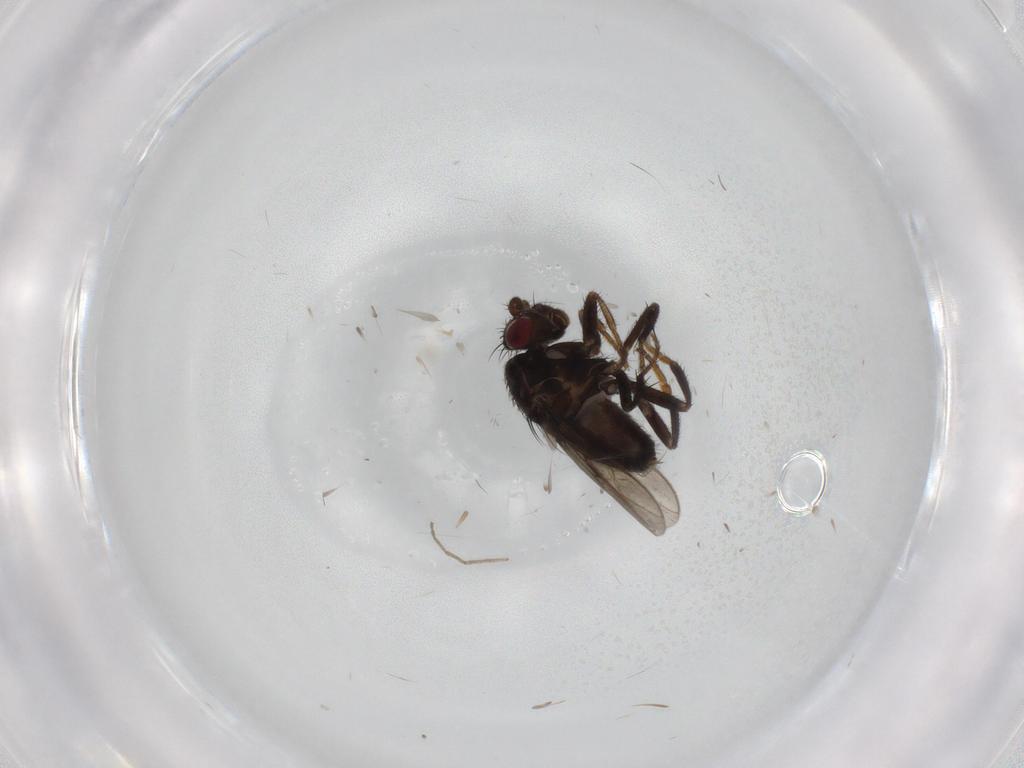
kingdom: Animalia
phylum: Arthropoda
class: Insecta
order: Diptera
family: Sphaeroceridae
